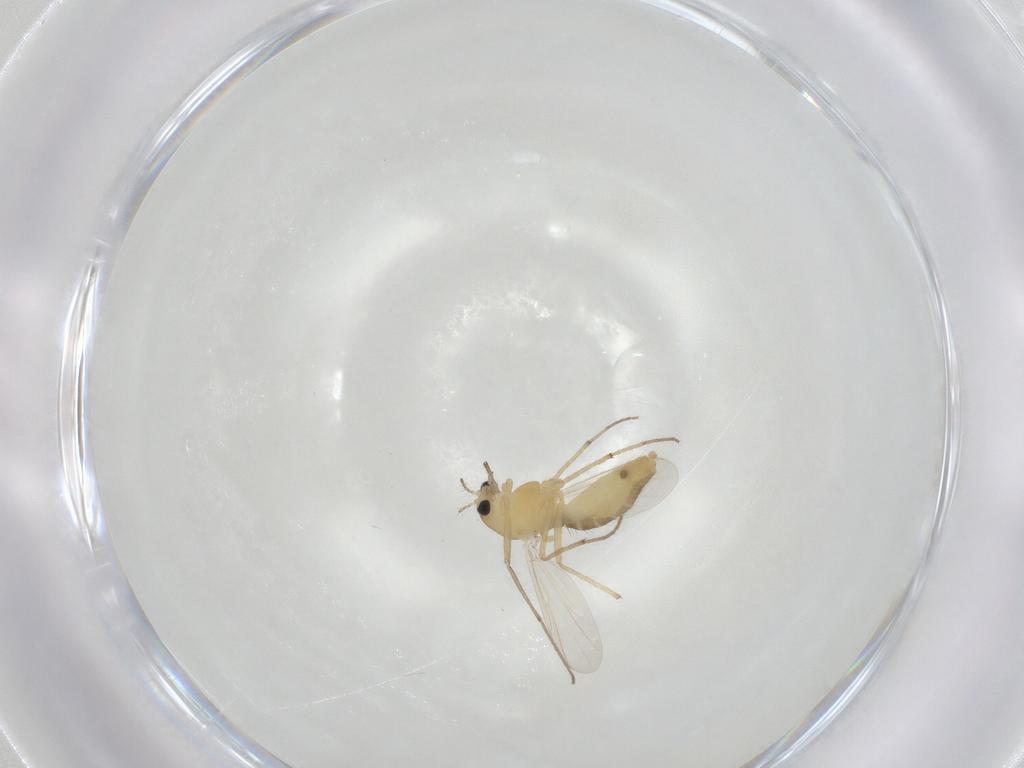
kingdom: Animalia
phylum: Arthropoda
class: Insecta
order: Diptera
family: Chironomidae
